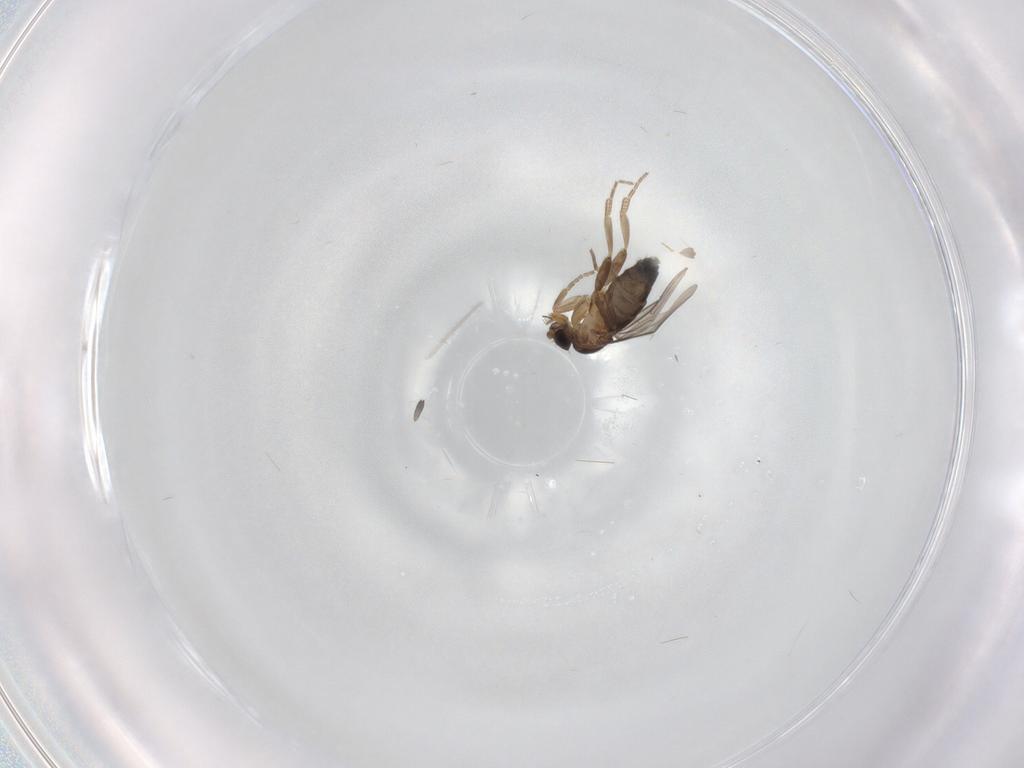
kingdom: Animalia
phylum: Arthropoda
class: Insecta
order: Diptera
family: Phoridae
